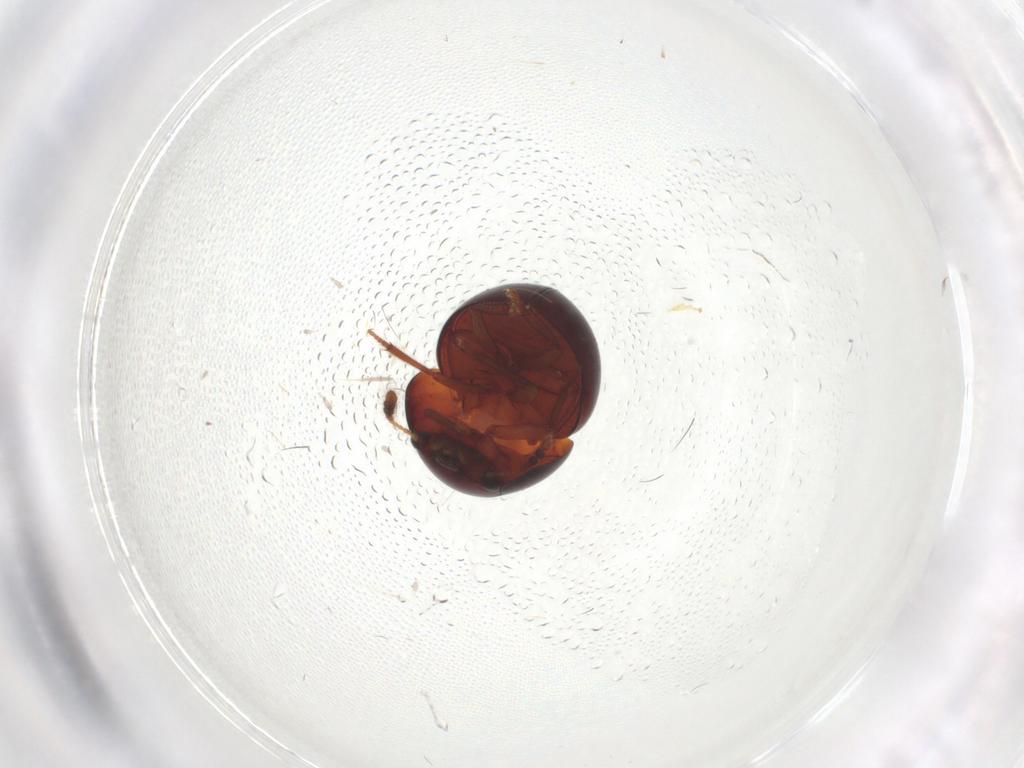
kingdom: Animalia
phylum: Arthropoda
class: Insecta
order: Coleoptera
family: Leiodidae
